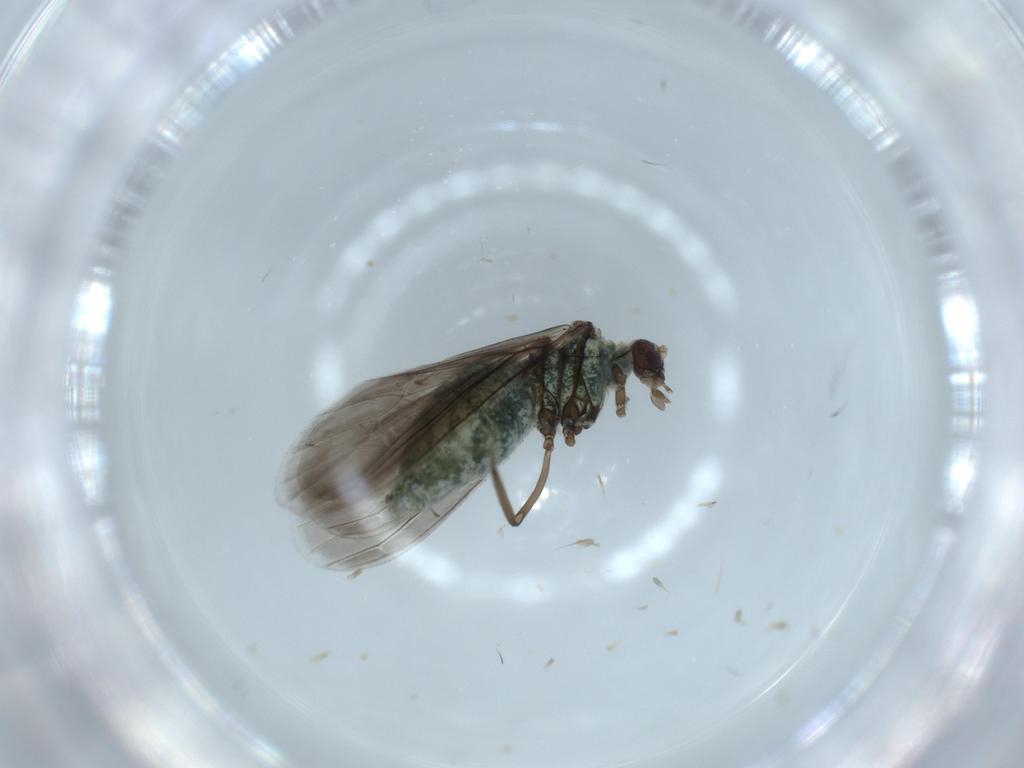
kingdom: Animalia
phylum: Arthropoda
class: Insecta
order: Neuroptera
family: Coniopterygidae
